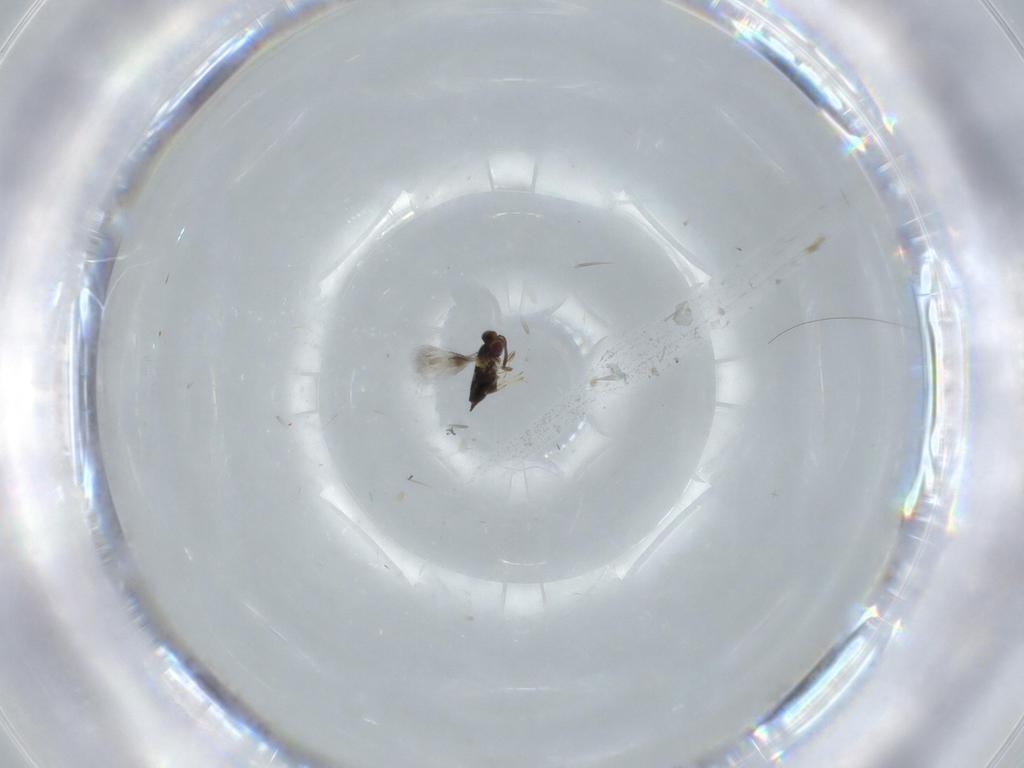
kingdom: Animalia
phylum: Arthropoda
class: Insecta
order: Hymenoptera
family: Signiphoridae
